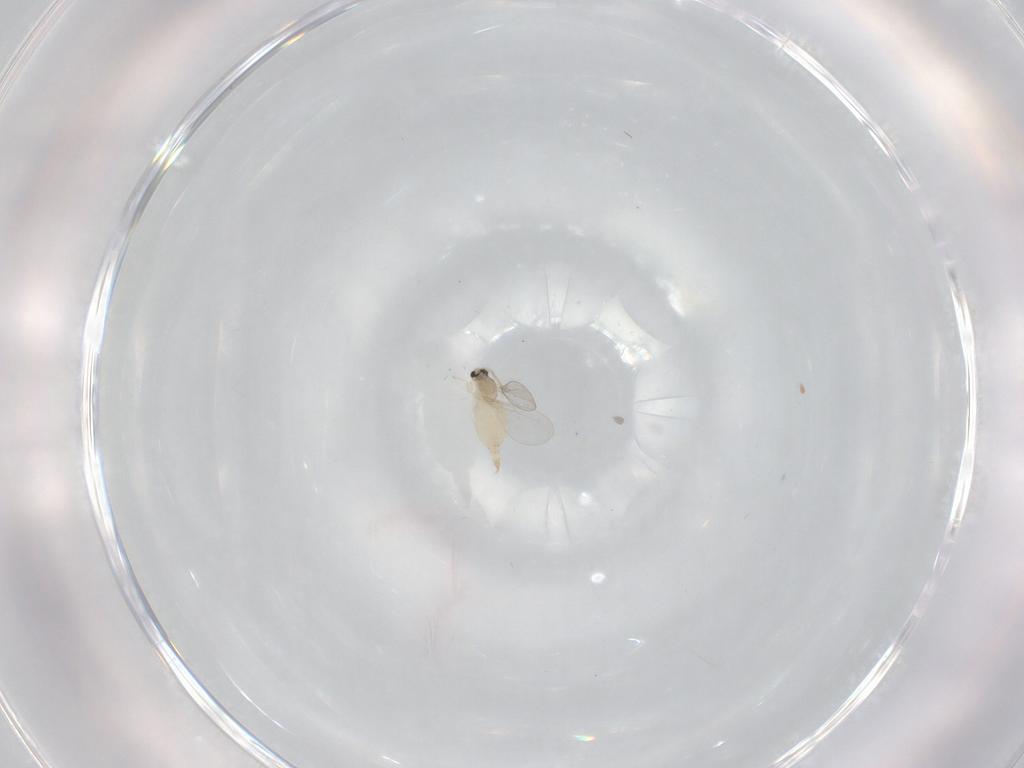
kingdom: Animalia
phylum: Arthropoda
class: Insecta
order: Diptera
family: Cecidomyiidae
